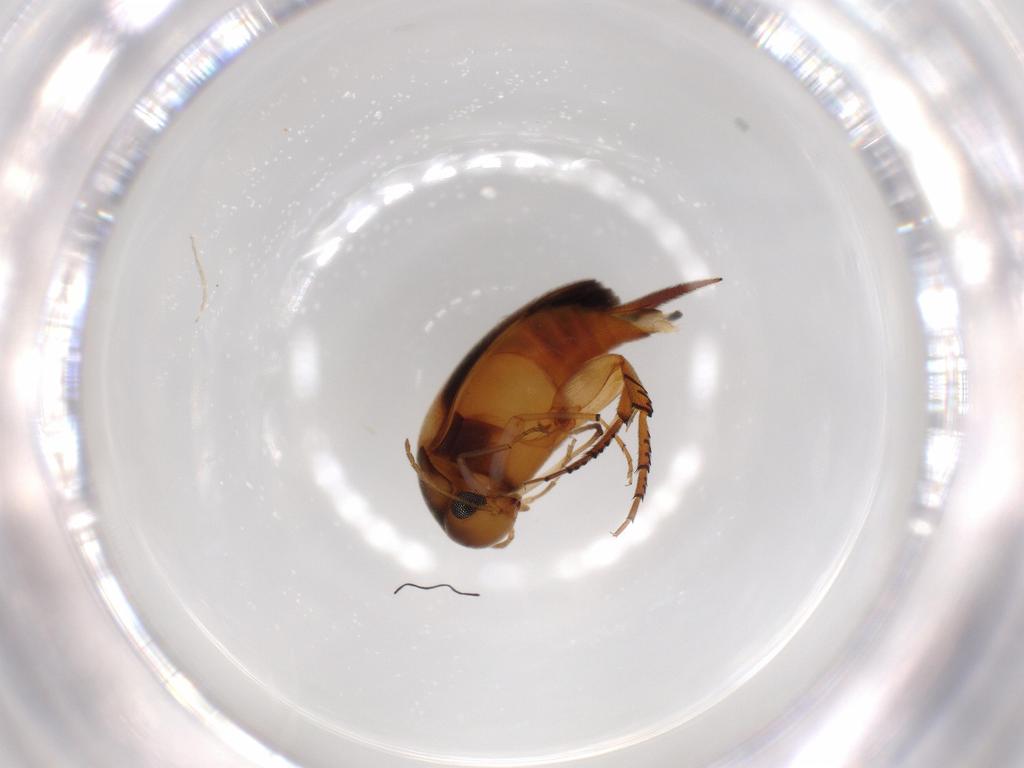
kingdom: Animalia
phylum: Arthropoda
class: Insecta
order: Coleoptera
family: Mordellidae
